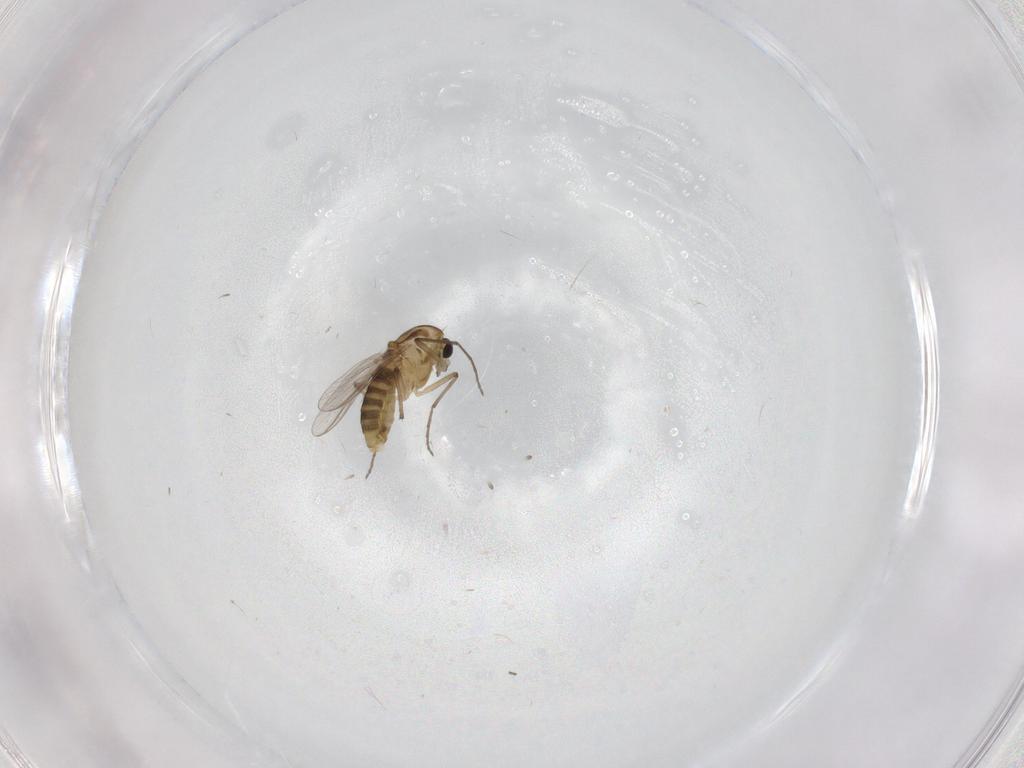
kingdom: Animalia
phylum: Arthropoda
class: Insecta
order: Diptera
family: Chironomidae
